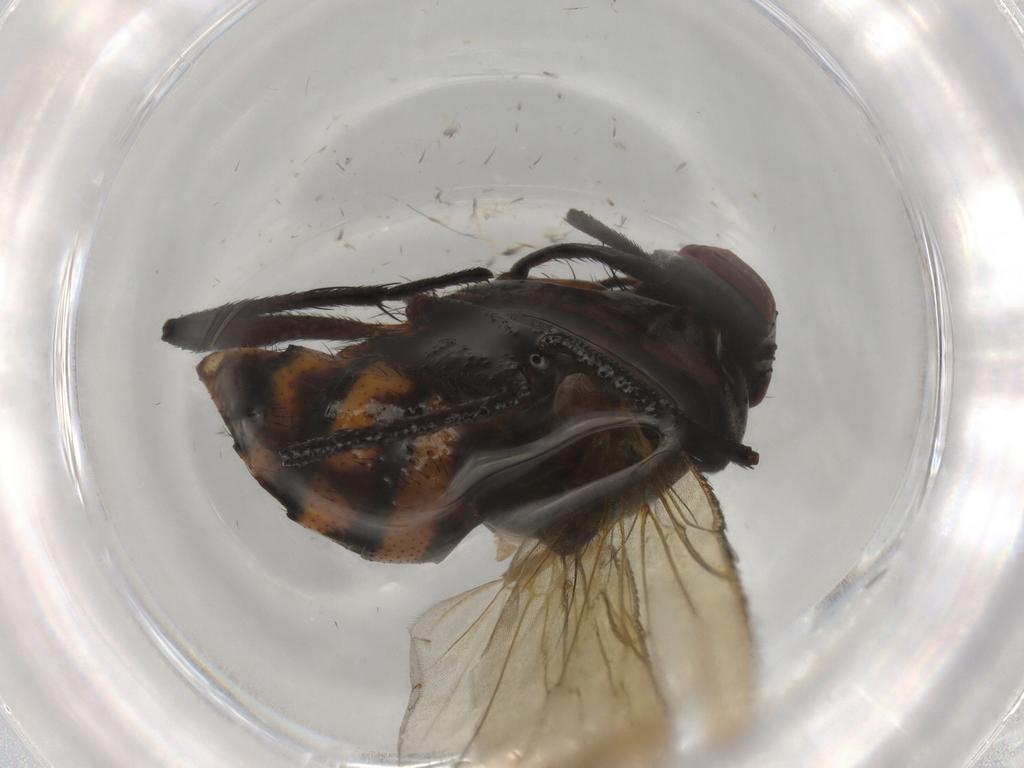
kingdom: Animalia
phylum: Arthropoda
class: Insecta
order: Diptera
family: Anthomyiidae
